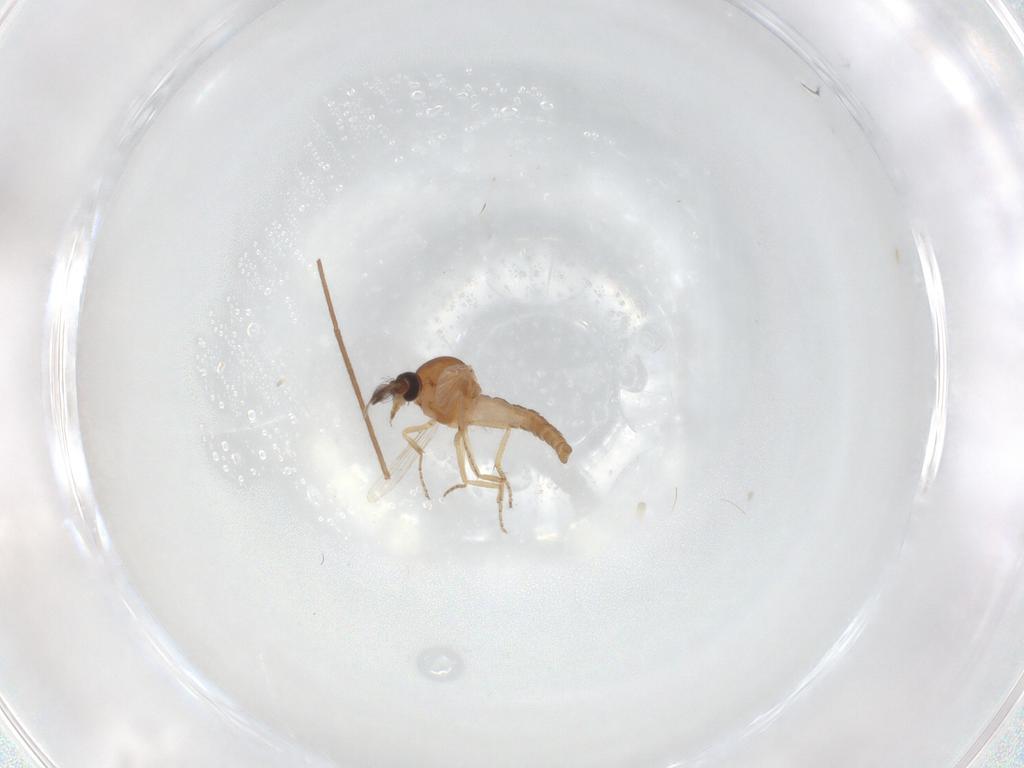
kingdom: Animalia
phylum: Arthropoda
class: Insecta
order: Diptera
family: Ceratopogonidae
